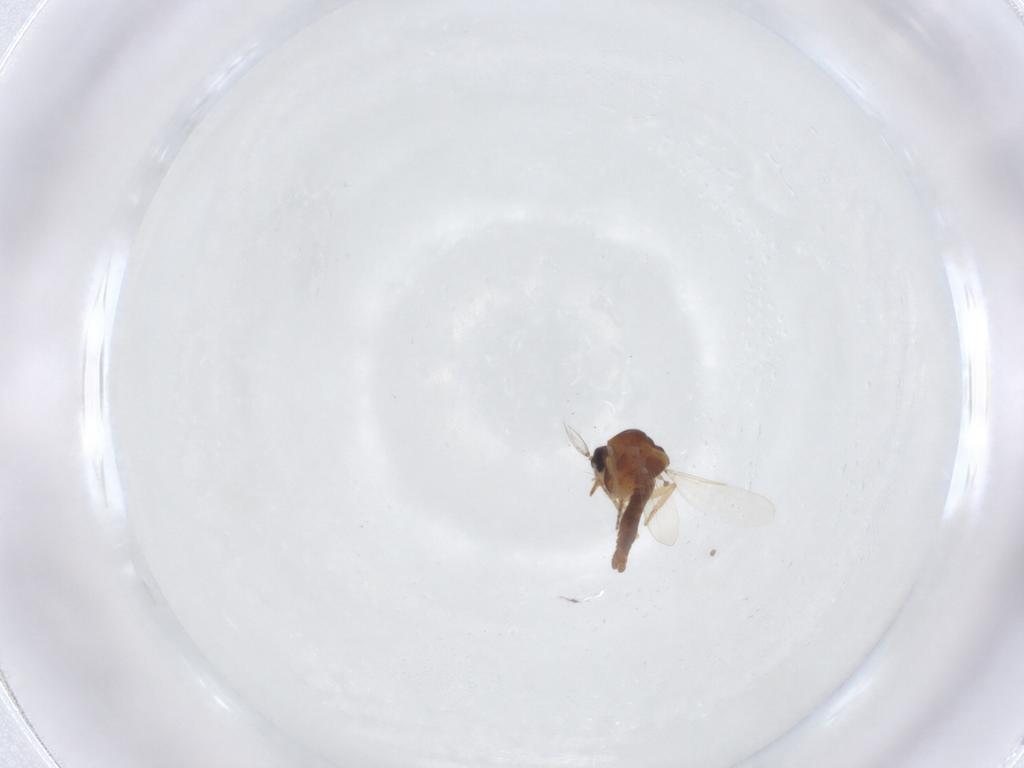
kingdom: Animalia
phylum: Arthropoda
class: Insecta
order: Diptera
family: Ceratopogonidae
